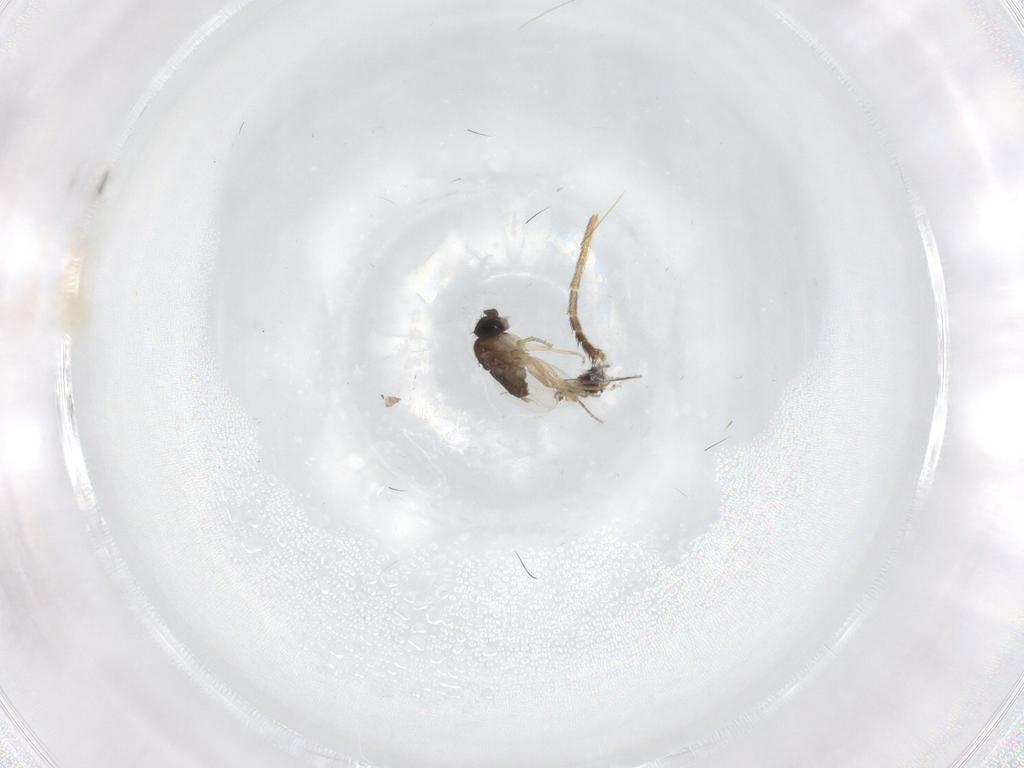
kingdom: Animalia
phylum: Arthropoda
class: Insecta
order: Diptera
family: Phoridae
